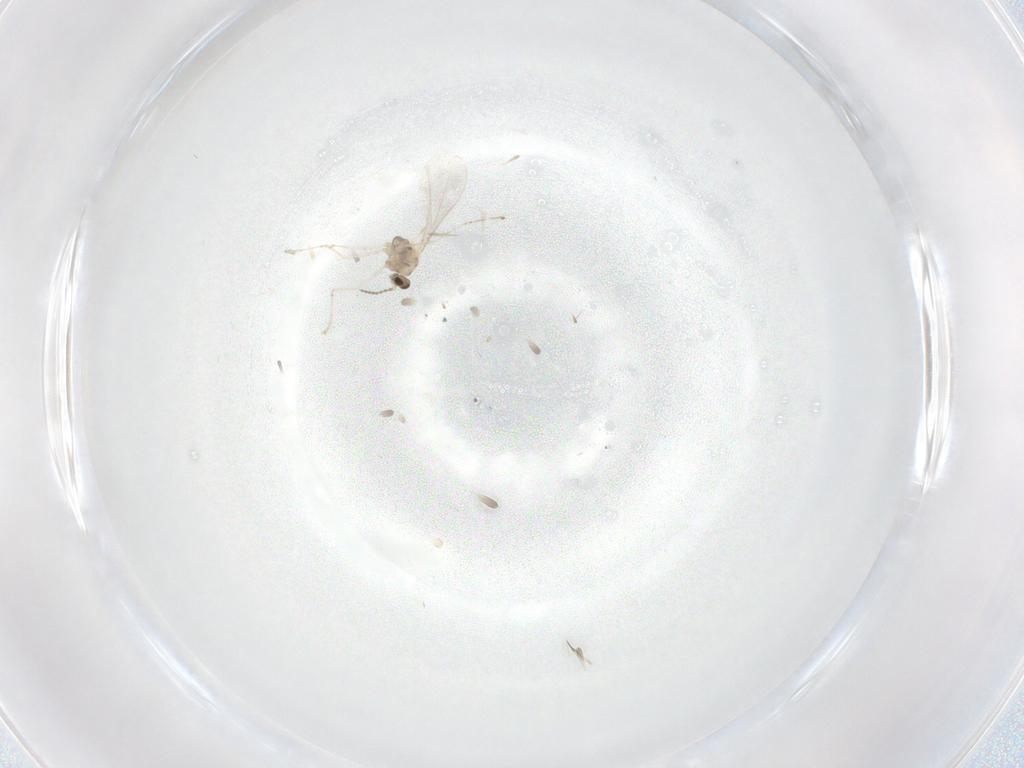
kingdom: Animalia
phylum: Arthropoda
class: Insecta
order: Diptera
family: Cecidomyiidae
